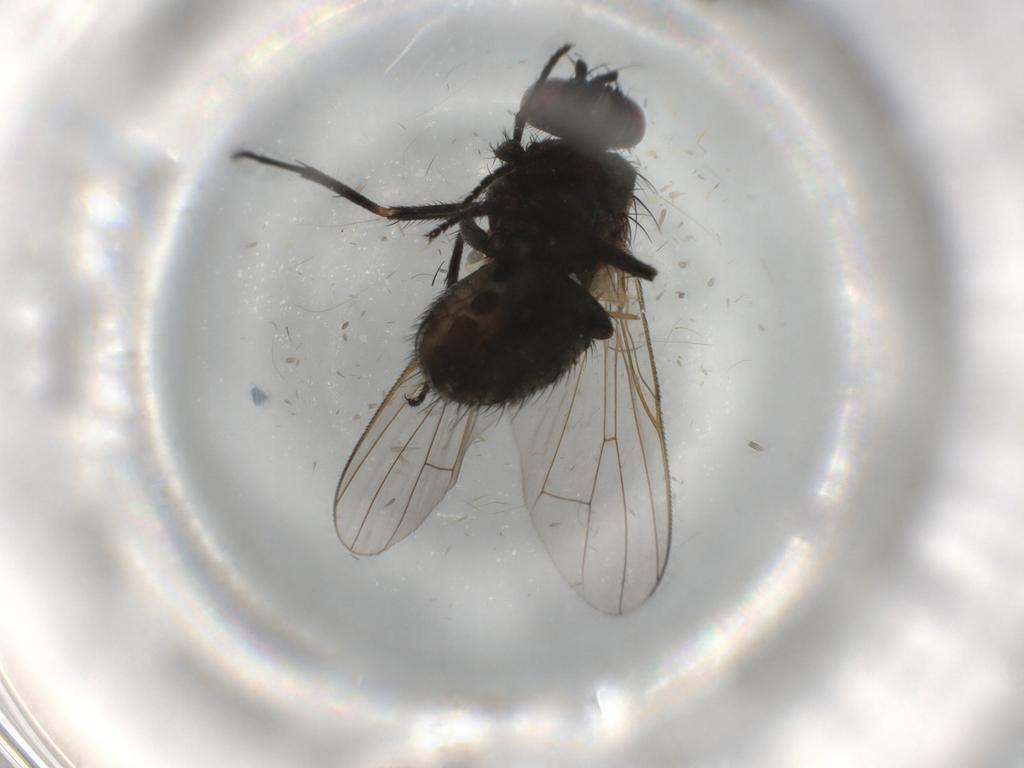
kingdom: Animalia
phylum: Arthropoda
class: Insecta
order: Diptera
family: Muscidae
